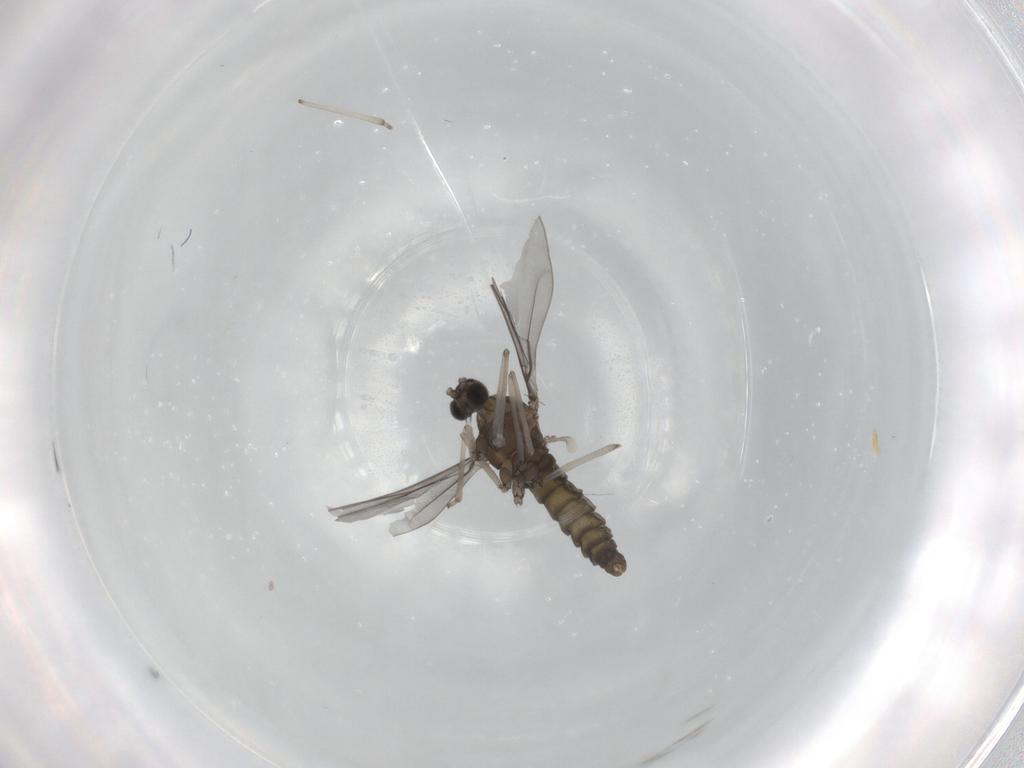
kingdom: Animalia
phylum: Arthropoda
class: Insecta
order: Diptera
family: Cecidomyiidae
